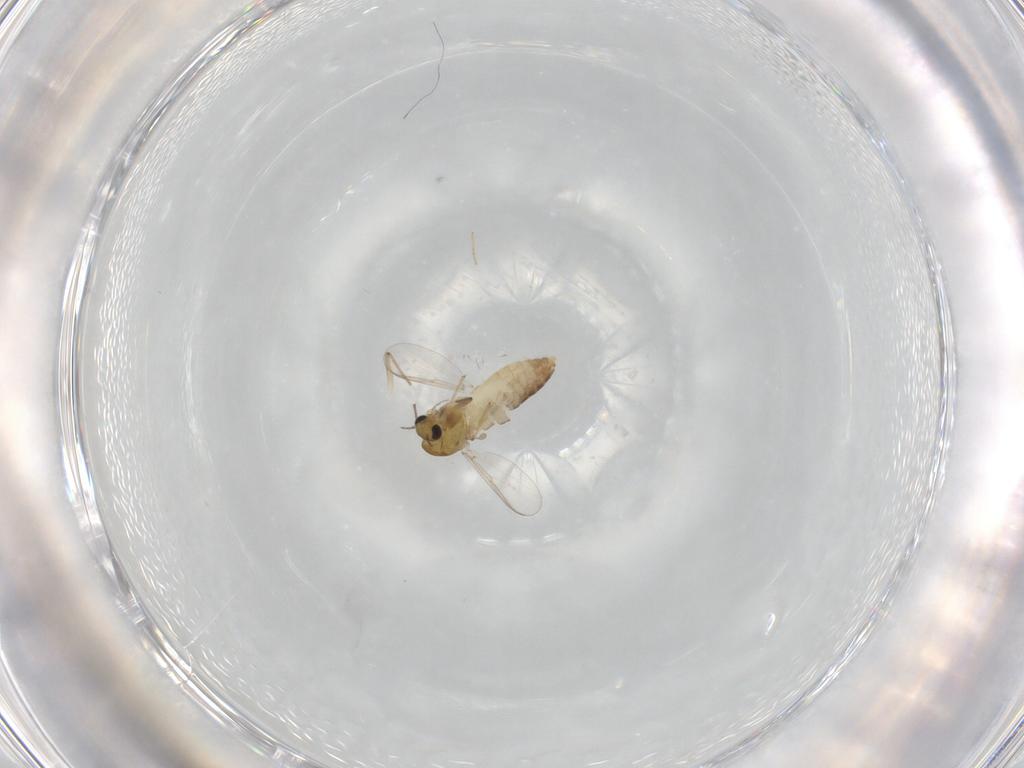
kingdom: Animalia
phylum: Arthropoda
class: Insecta
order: Diptera
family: Chironomidae
